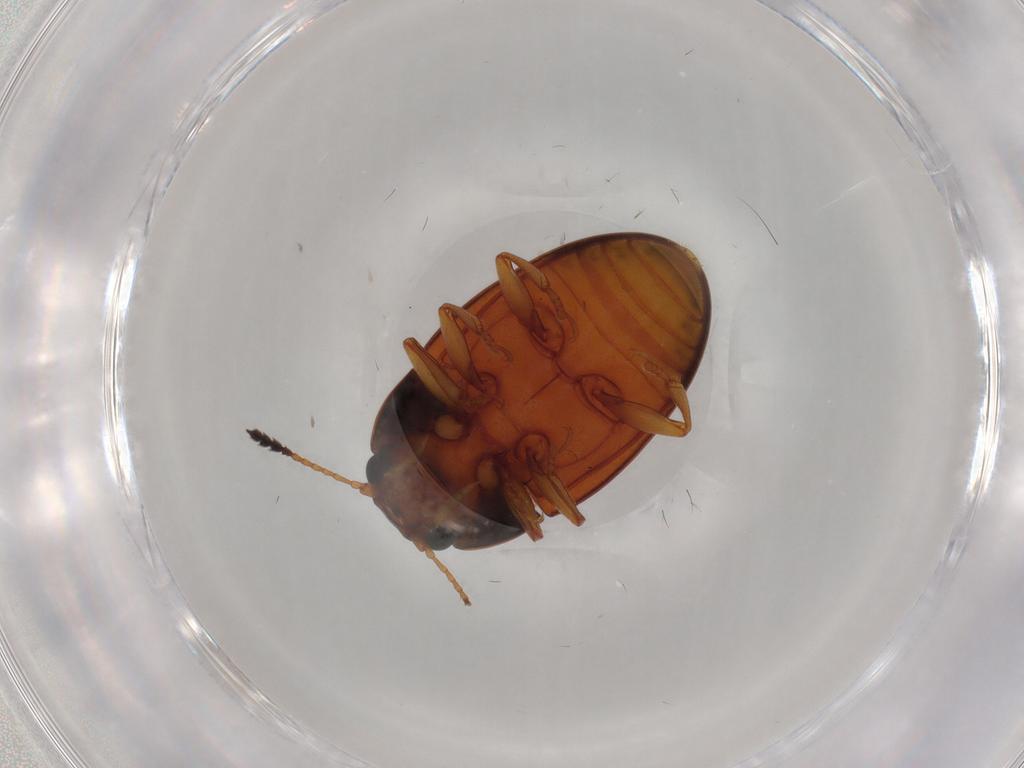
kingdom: Animalia
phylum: Arthropoda
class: Insecta
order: Coleoptera
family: Erotylidae
